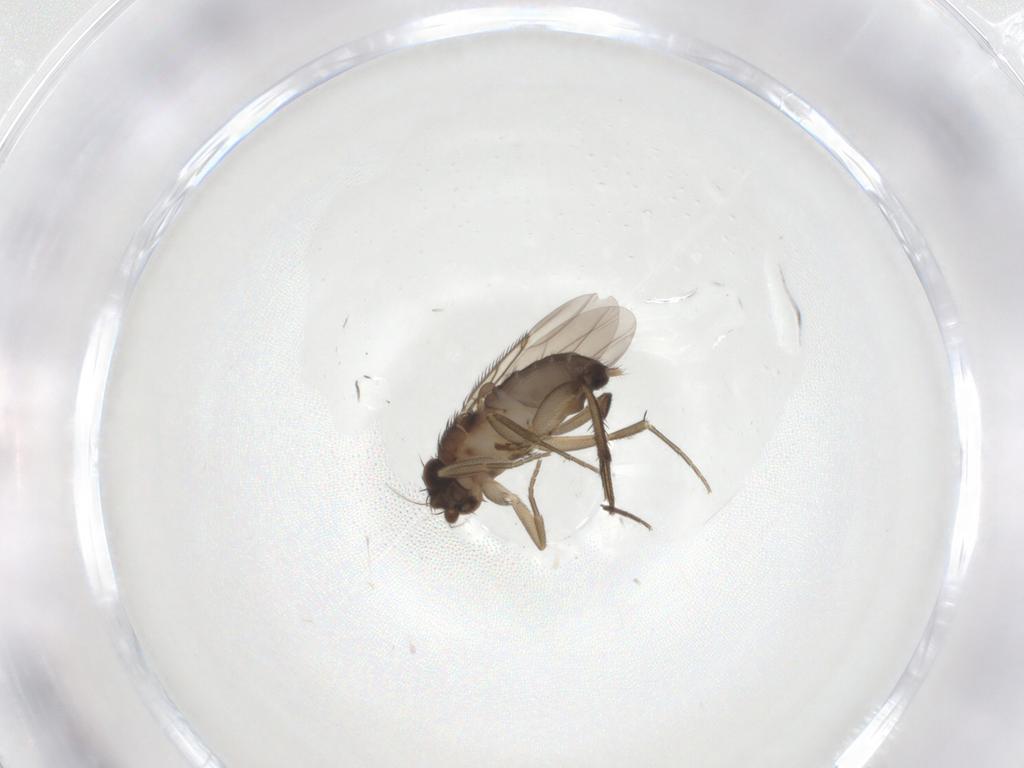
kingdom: Animalia
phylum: Arthropoda
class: Insecta
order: Diptera
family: Phoridae
